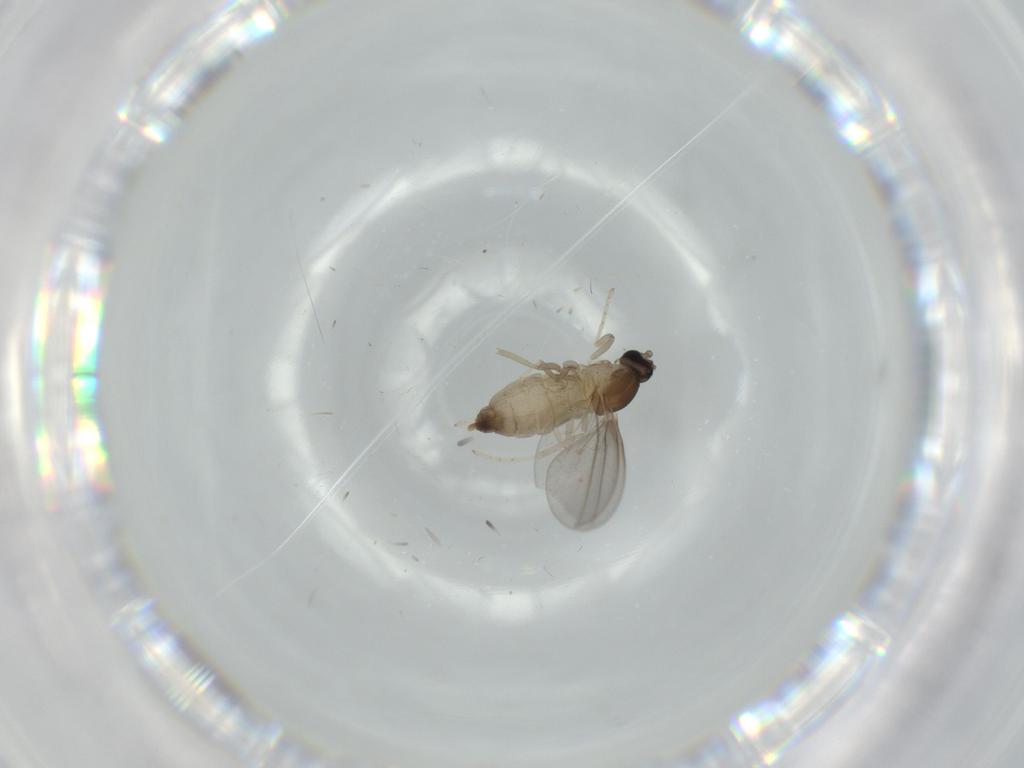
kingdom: Animalia
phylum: Arthropoda
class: Insecta
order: Diptera
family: Cecidomyiidae
